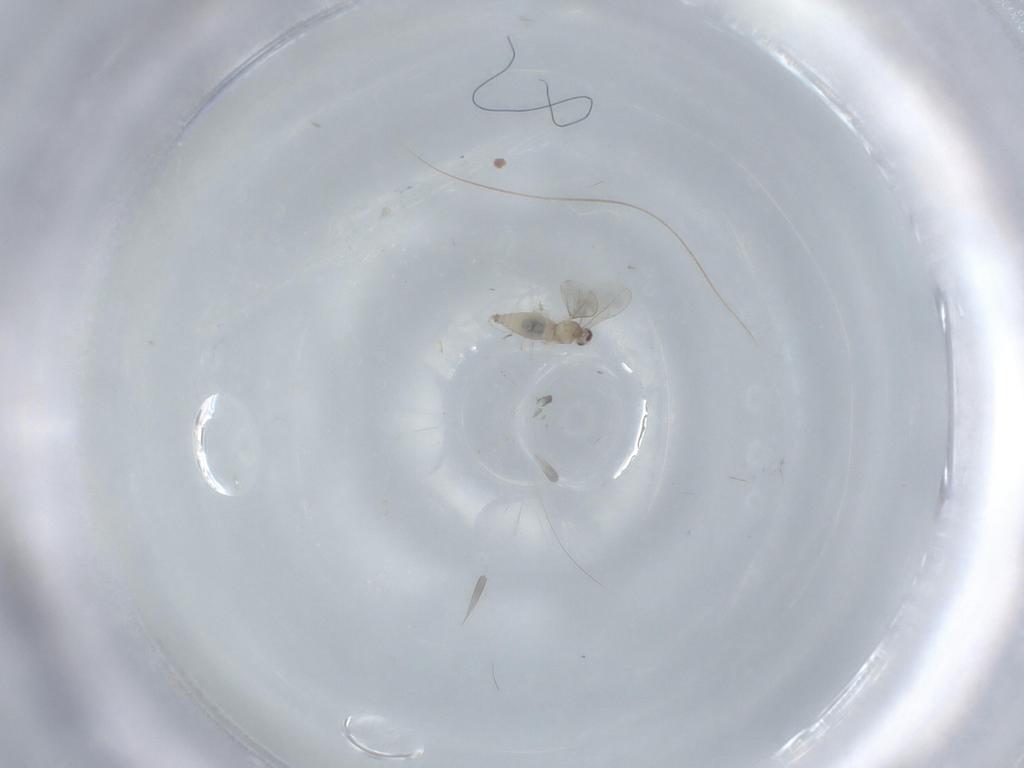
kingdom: Animalia
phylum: Arthropoda
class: Insecta
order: Diptera
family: Cecidomyiidae
